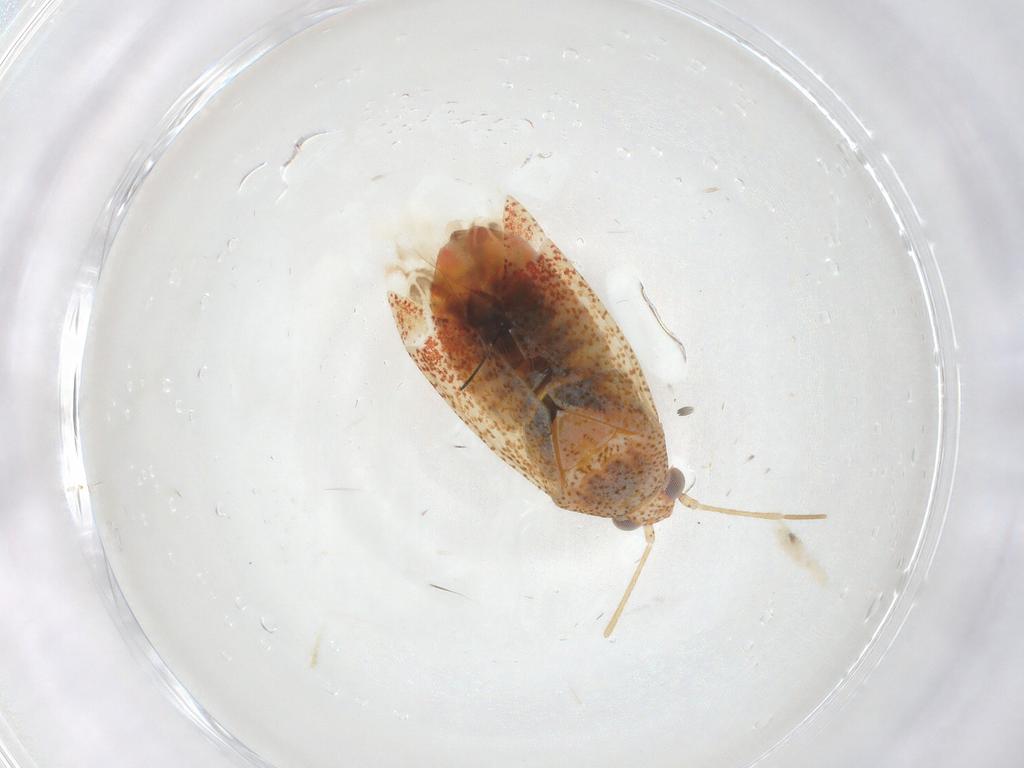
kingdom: Animalia
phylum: Arthropoda
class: Insecta
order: Hemiptera
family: Miridae
